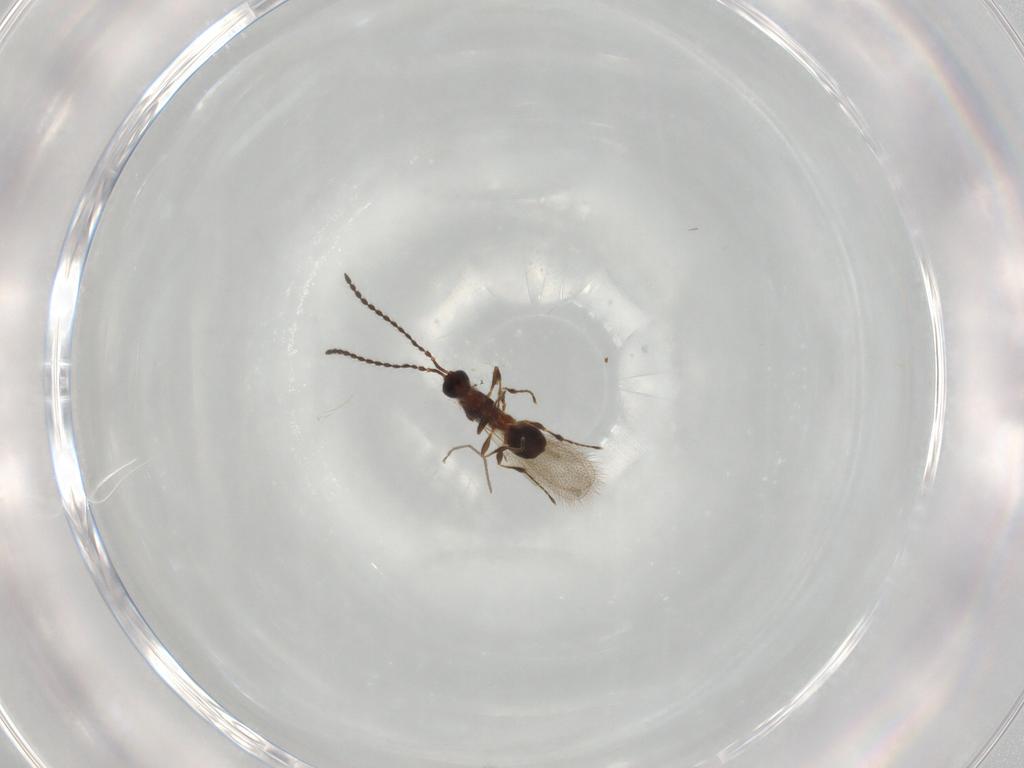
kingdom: Animalia
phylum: Arthropoda
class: Insecta
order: Hymenoptera
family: Diapriidae
